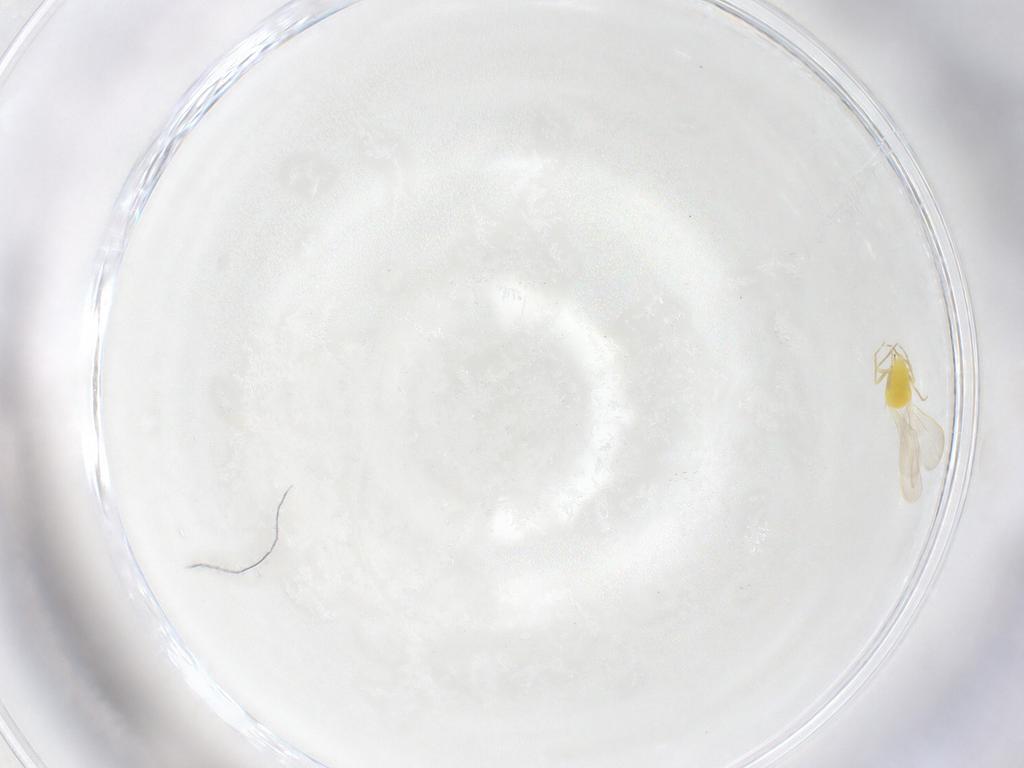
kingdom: Animalia
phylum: Arthropoda
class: Insecta
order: Hemiptera
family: Aleyrodidae
